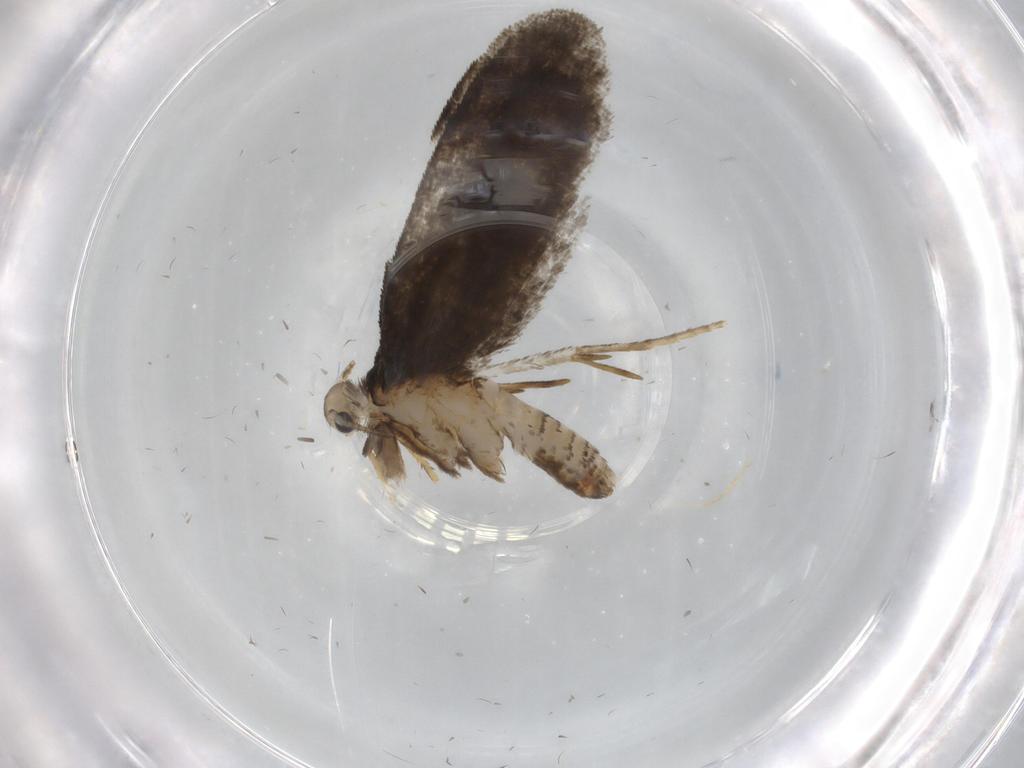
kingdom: Animalia
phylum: Arthropoda
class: Insecta
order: Lepidoptera
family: Psychidae
